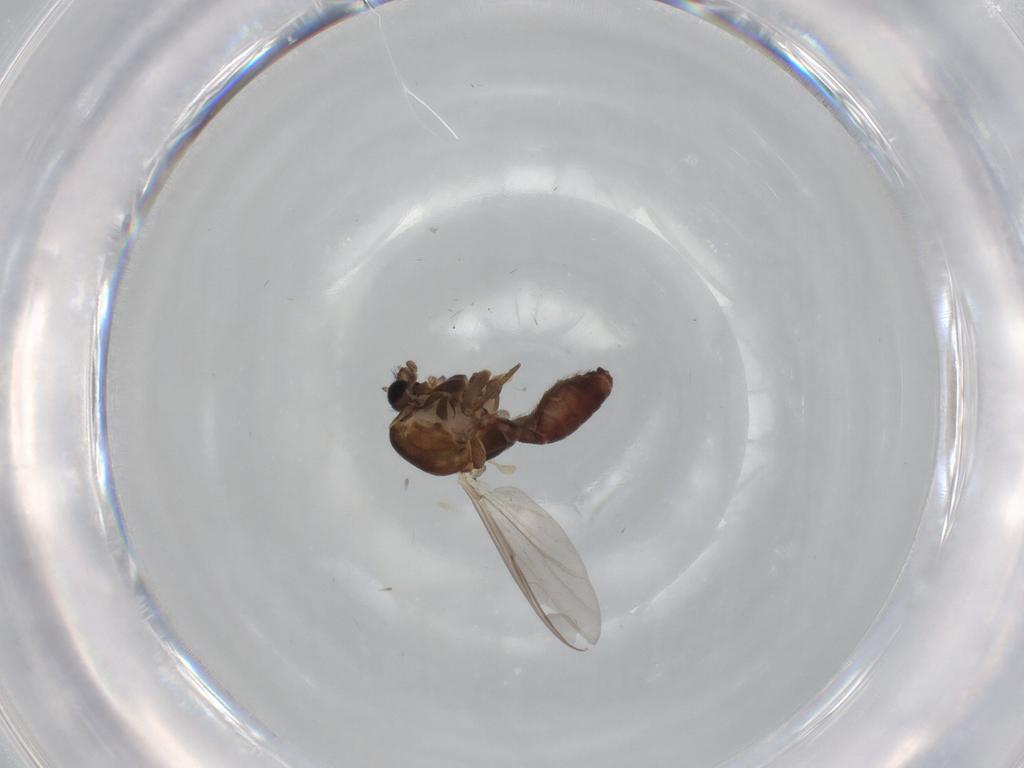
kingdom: Animalia
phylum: Arthropoda
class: Insecta
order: Diptera
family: Chironomidae
